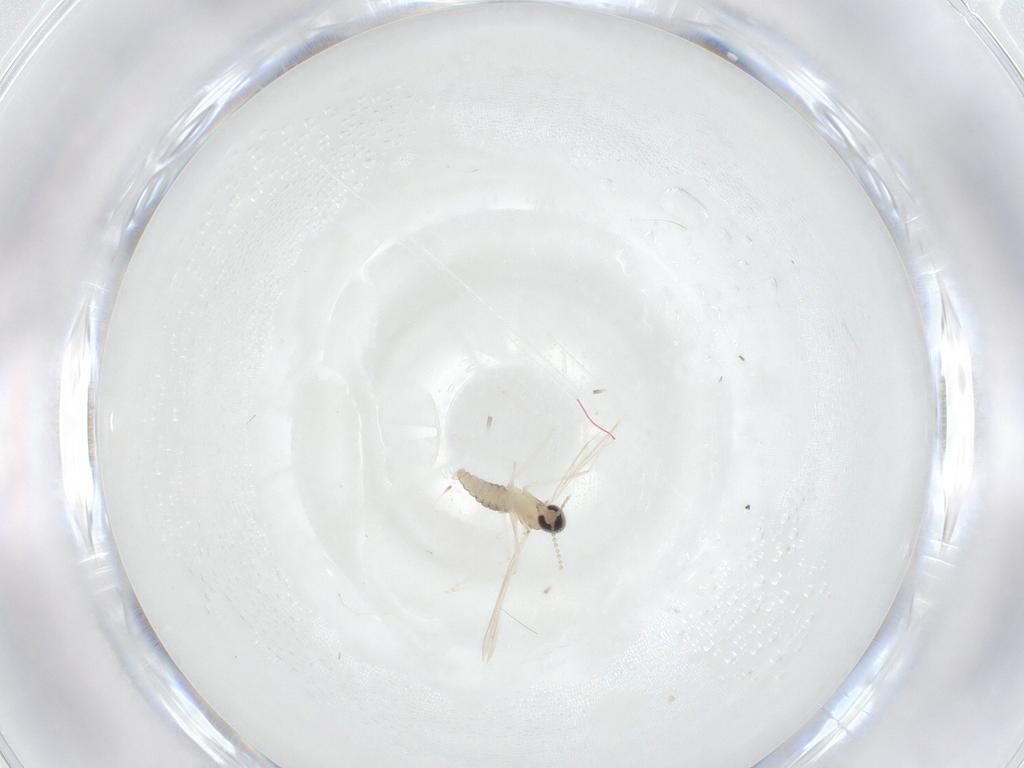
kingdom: Animalia
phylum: Arthropoda
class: Insecta
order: Diptera
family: Cecidomyiidae
